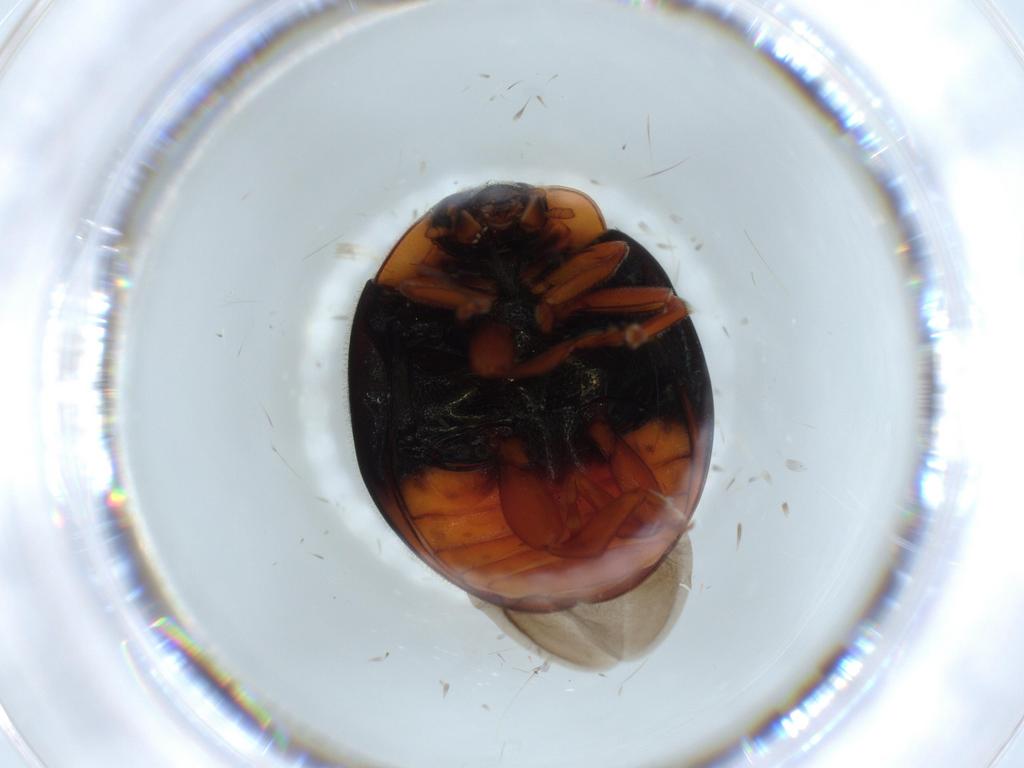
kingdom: Animalia
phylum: Arthropoda
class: Insecta
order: Coleoptera
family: Coccinellidae
